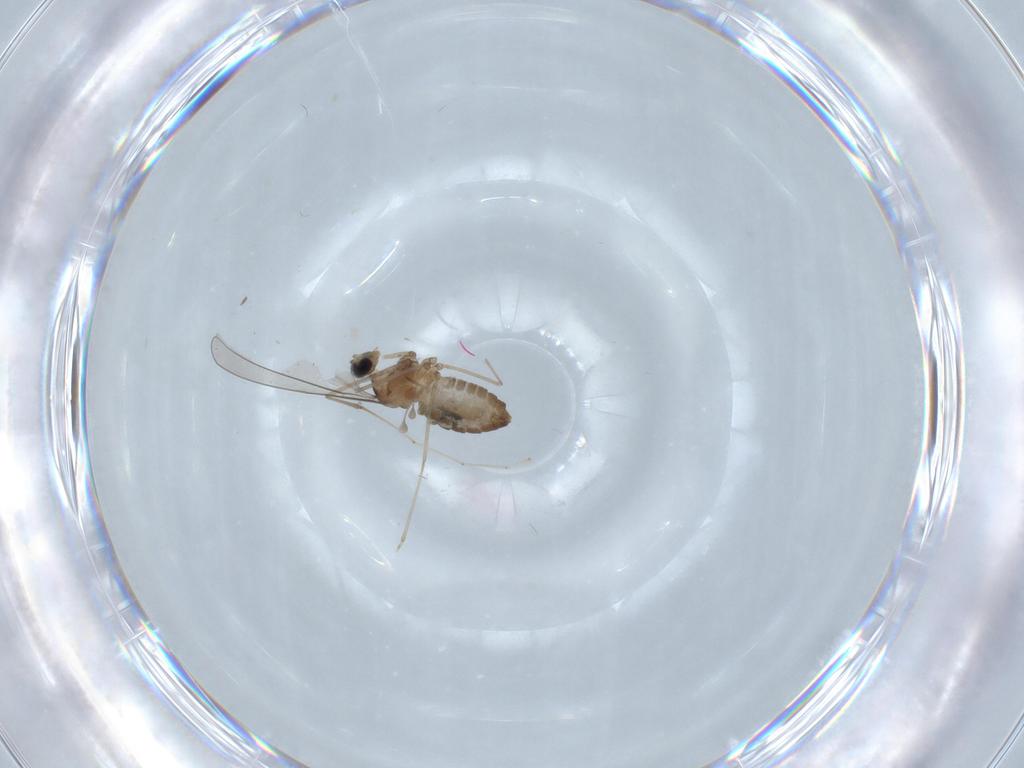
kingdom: Animalia
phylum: Arthropoda
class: Insecta
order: Diptera
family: Cecidomyiidae
